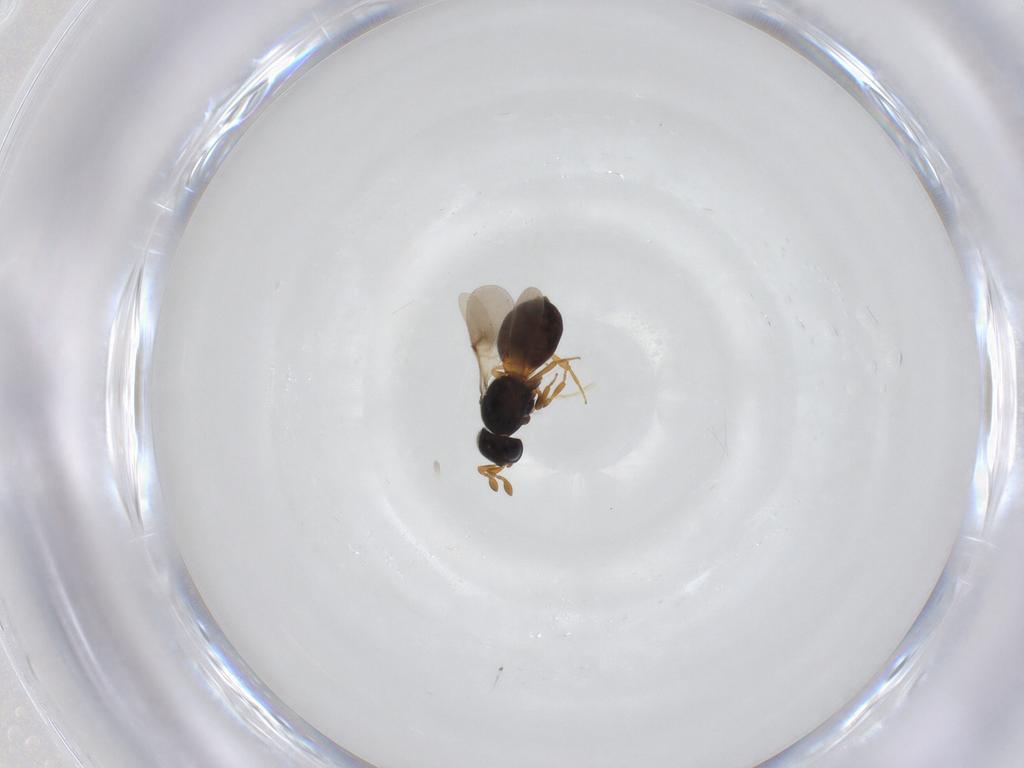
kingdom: Animalia
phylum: Arthropoda
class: Insecta
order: Hymenoptera
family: Scelionidae
